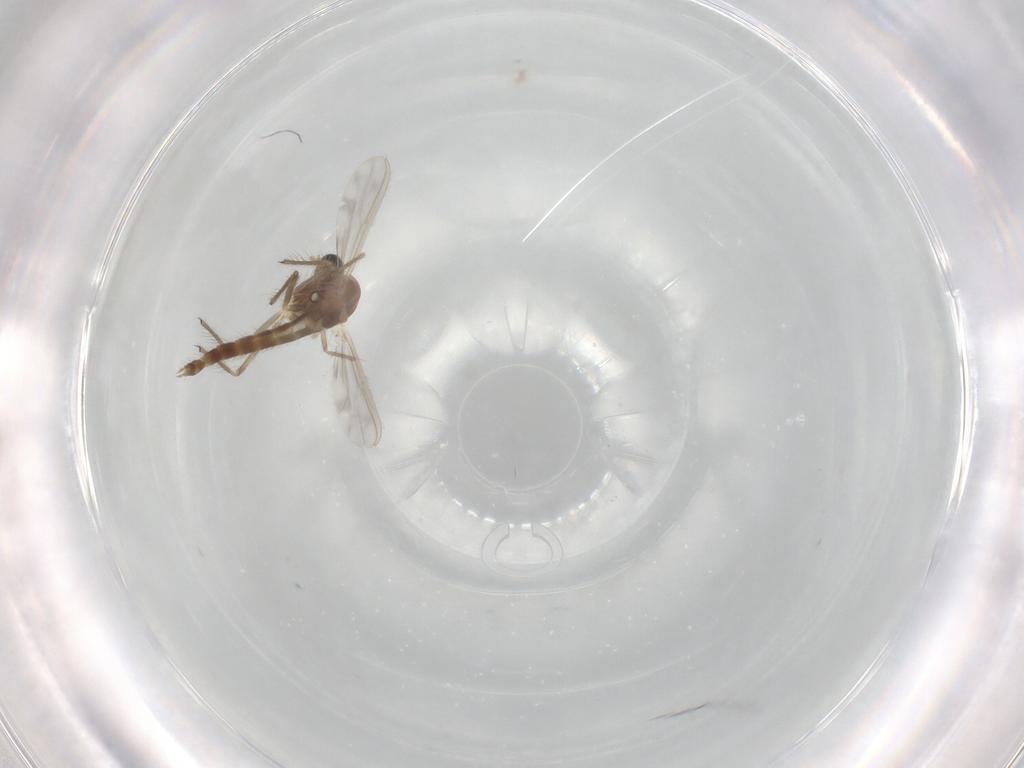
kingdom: Animalia
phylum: Arthropoda
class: Insecta
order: Diptera
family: Chironomidae
